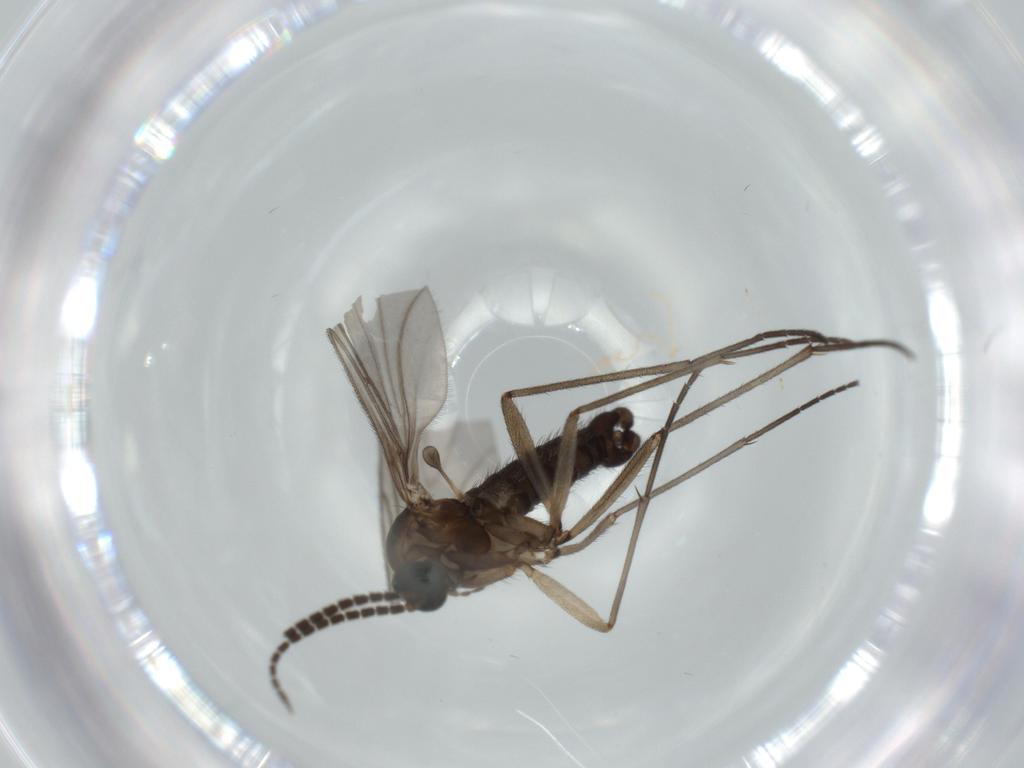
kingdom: Animalia
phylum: Arthropoda
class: Insecta
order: Diptera
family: Sciaridae
